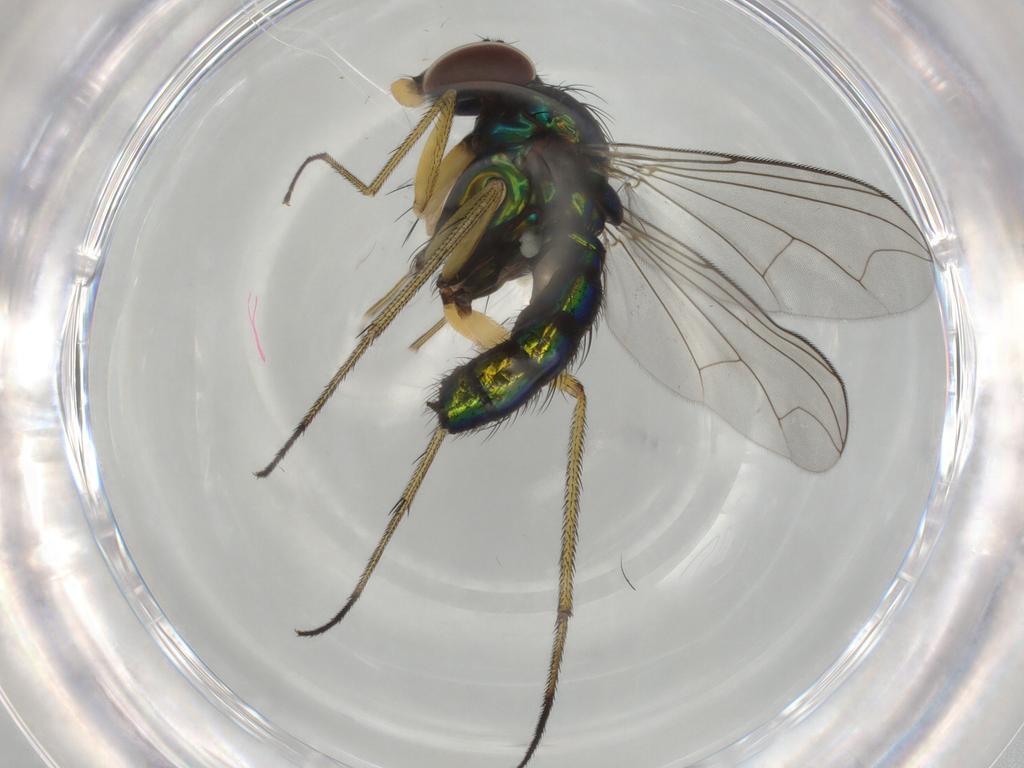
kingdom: Animalia
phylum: Arthropoda
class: Insecta
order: Diptera
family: Dolichopodidae
